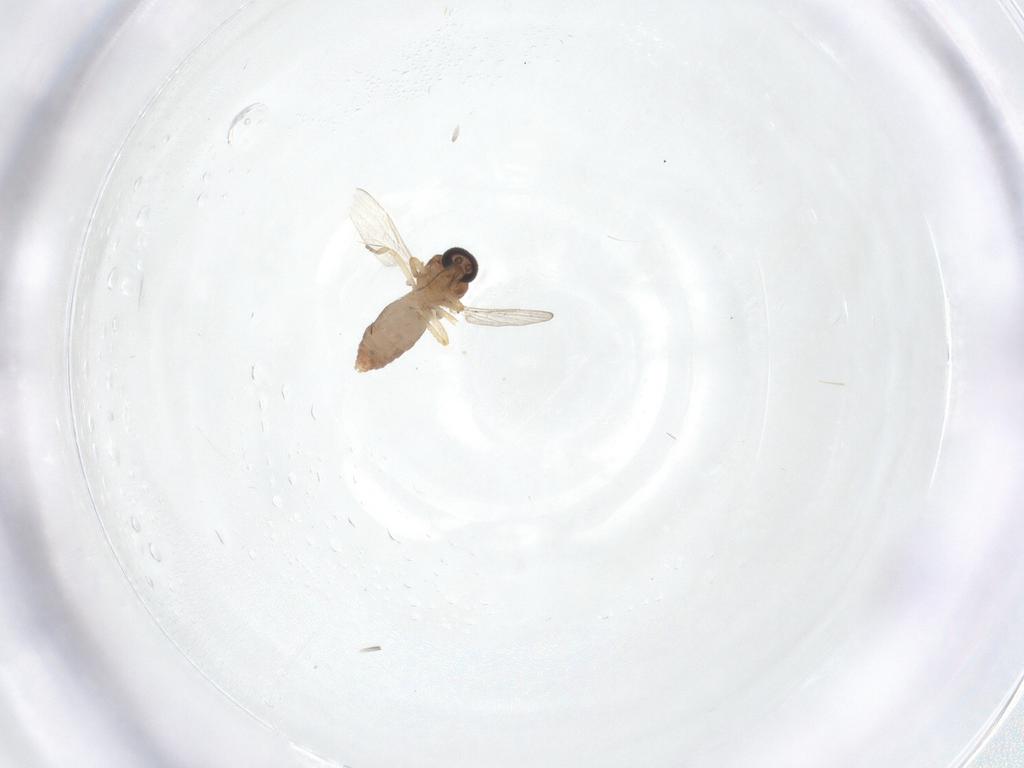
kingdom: Animalia
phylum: Arthropoda
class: Insecta
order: Diptera
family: Ceratopogonidae
